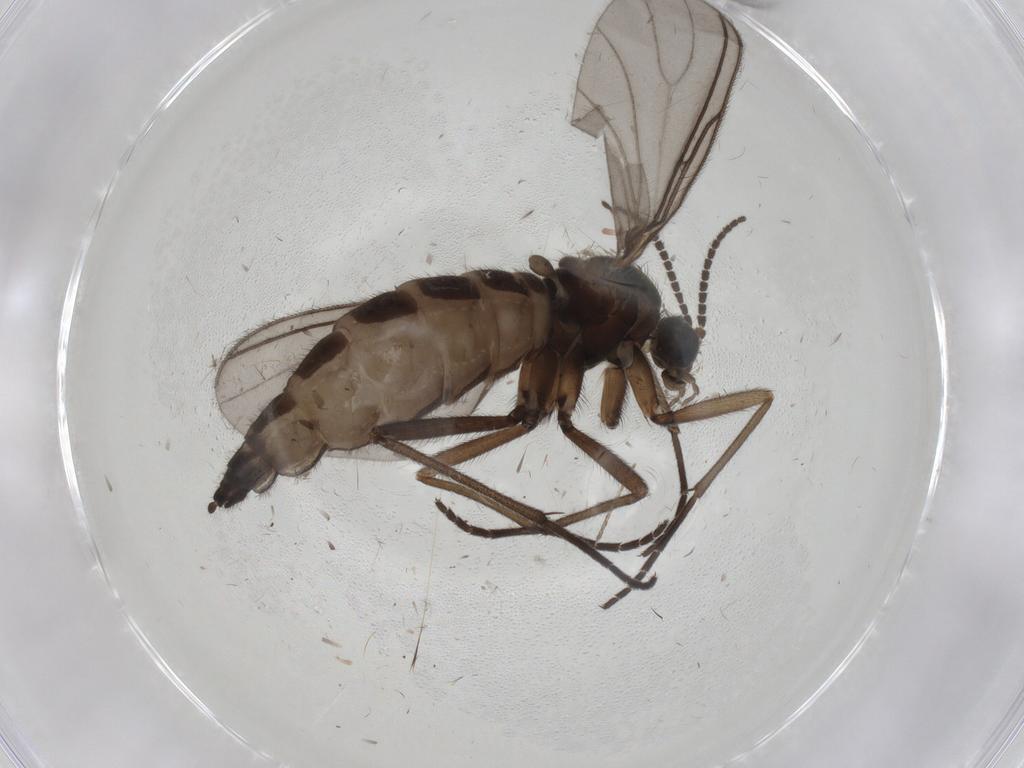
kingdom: Animalia
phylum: Arthropoda
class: Insecta
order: Diptera
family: Sciaridae
